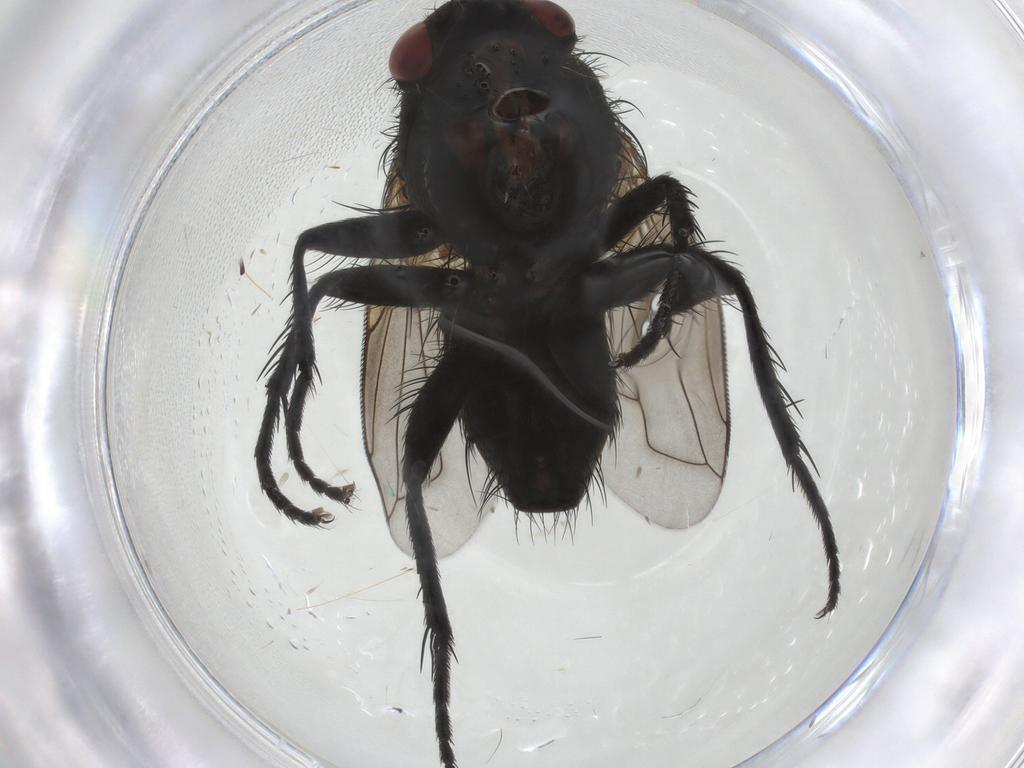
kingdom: Animalia
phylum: Arthropoda
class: Insecta
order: Diptera
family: Tachinidae
